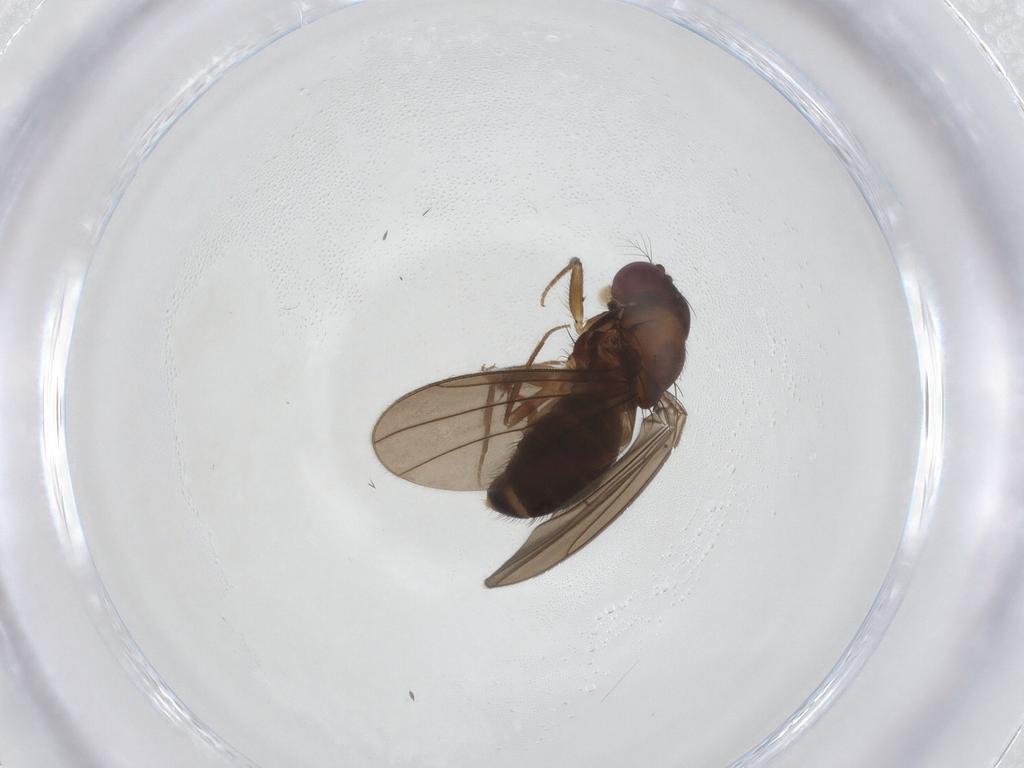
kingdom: Animalia
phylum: Arthropoda
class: Insecta
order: Diptera
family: Drosophilidae
